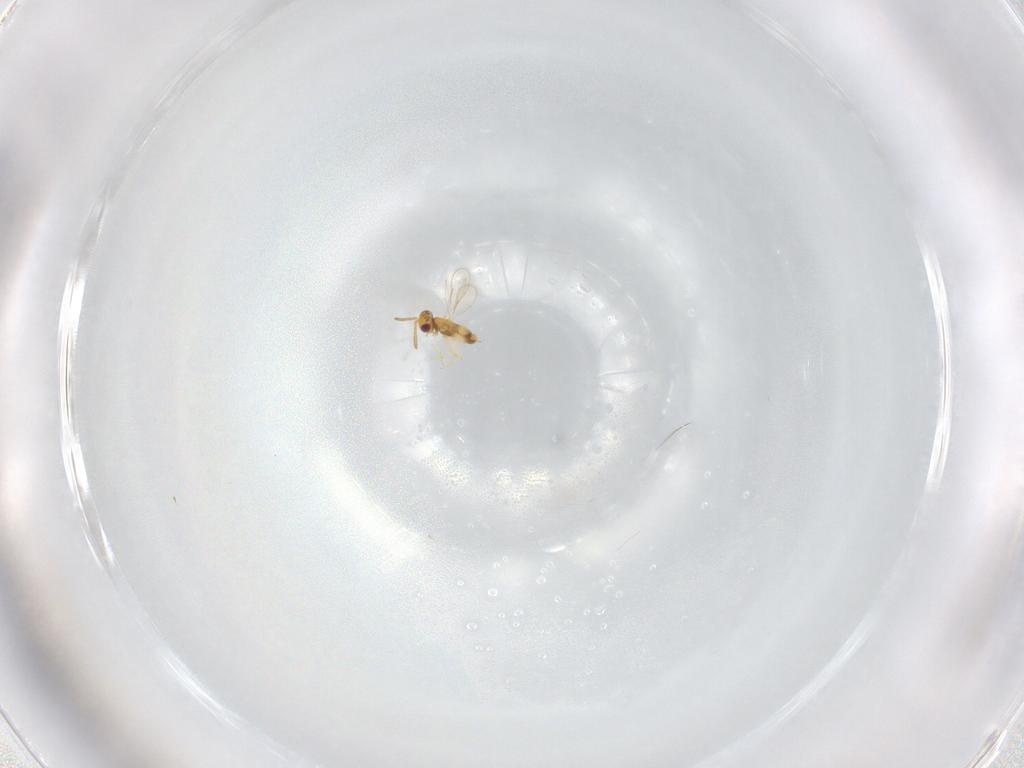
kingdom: Animalia
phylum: Arthropoda
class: Insecta
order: Hymenoptera
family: Aphelinidae
